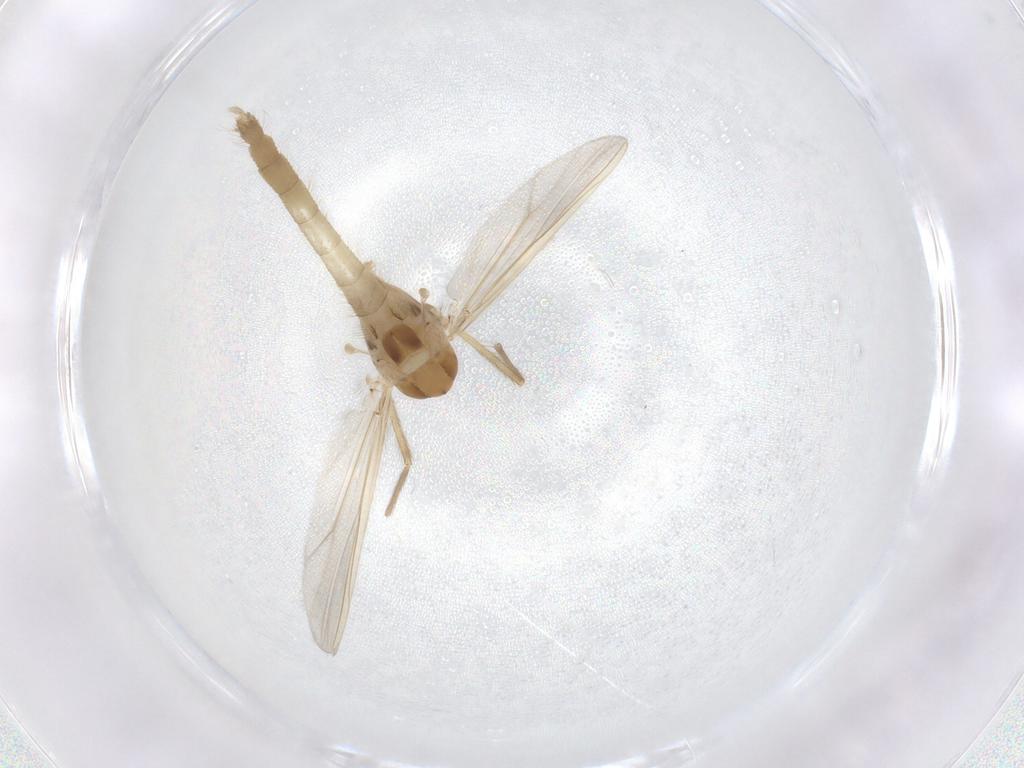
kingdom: Animalia
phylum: Arthropoda
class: Insecta
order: Diptera
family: Chironomidae
